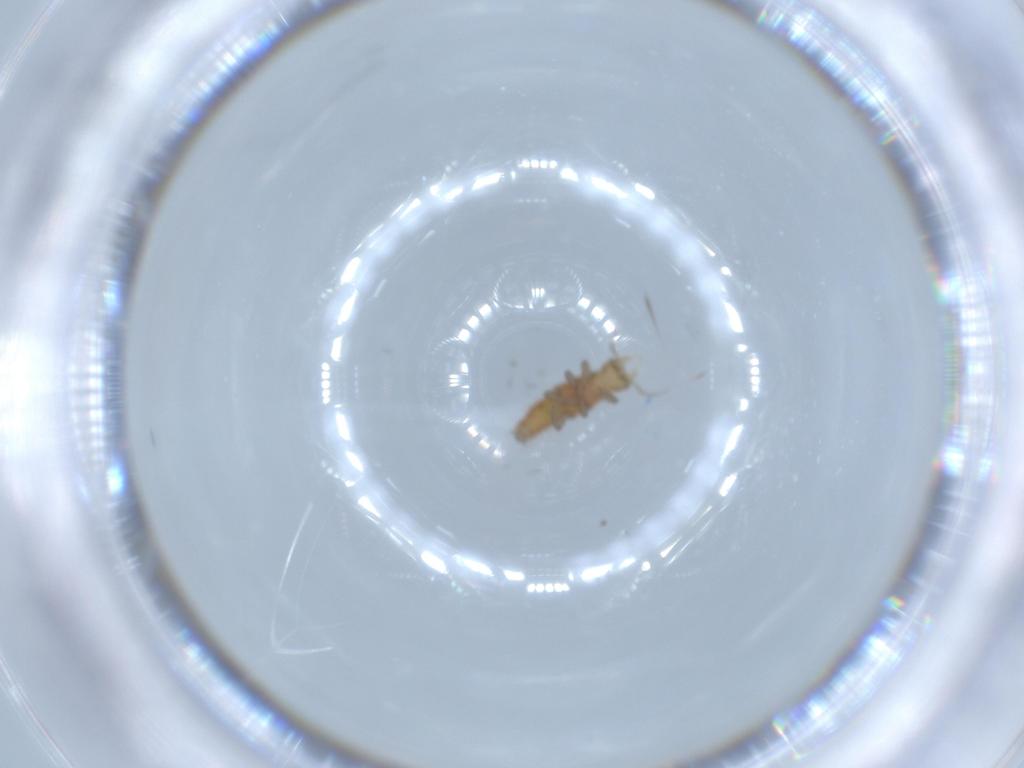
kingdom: Animalia
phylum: Arthropoda
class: Insecta
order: Neuroptera
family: Hemerobiidae
